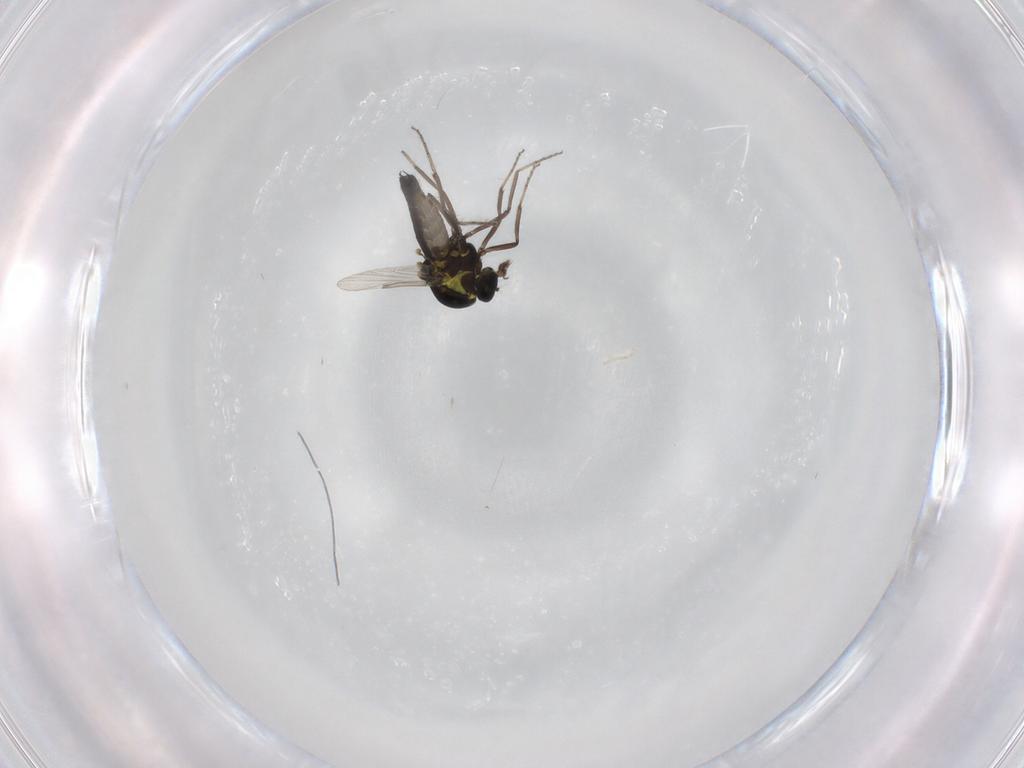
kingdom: Animalia
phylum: Arthropoda
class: Insecta
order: Diptera
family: Ceratopogonidae
